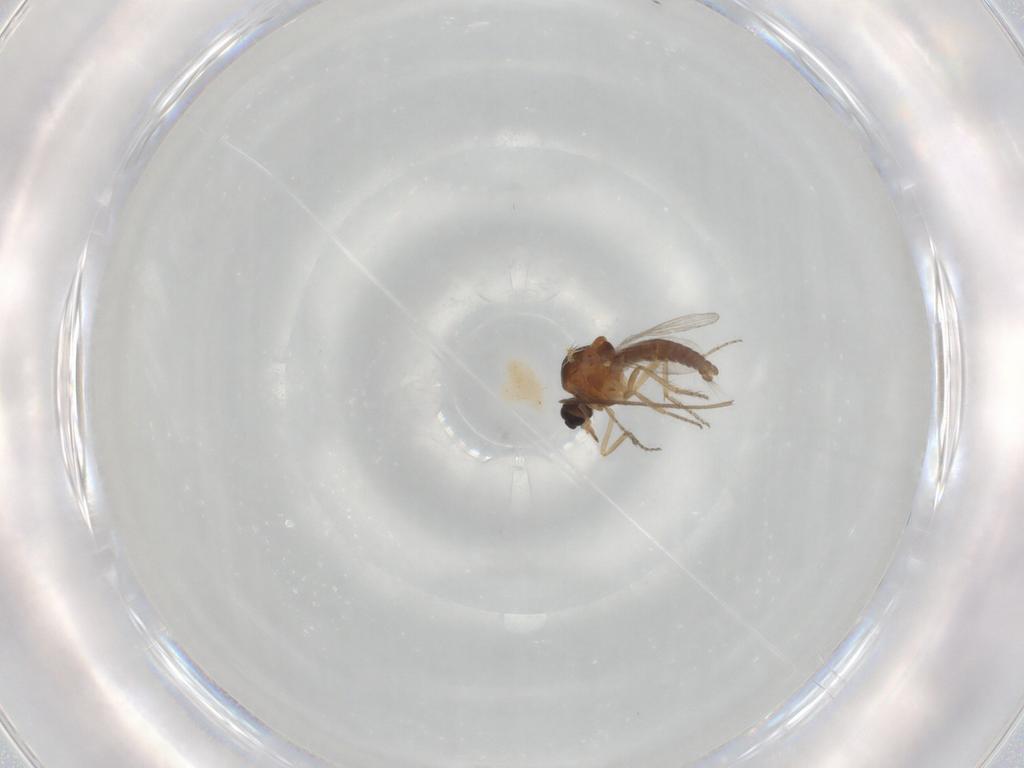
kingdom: Animalia
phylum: Arthropoda
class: Insecta
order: Diptera
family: Ceratopogonidae
